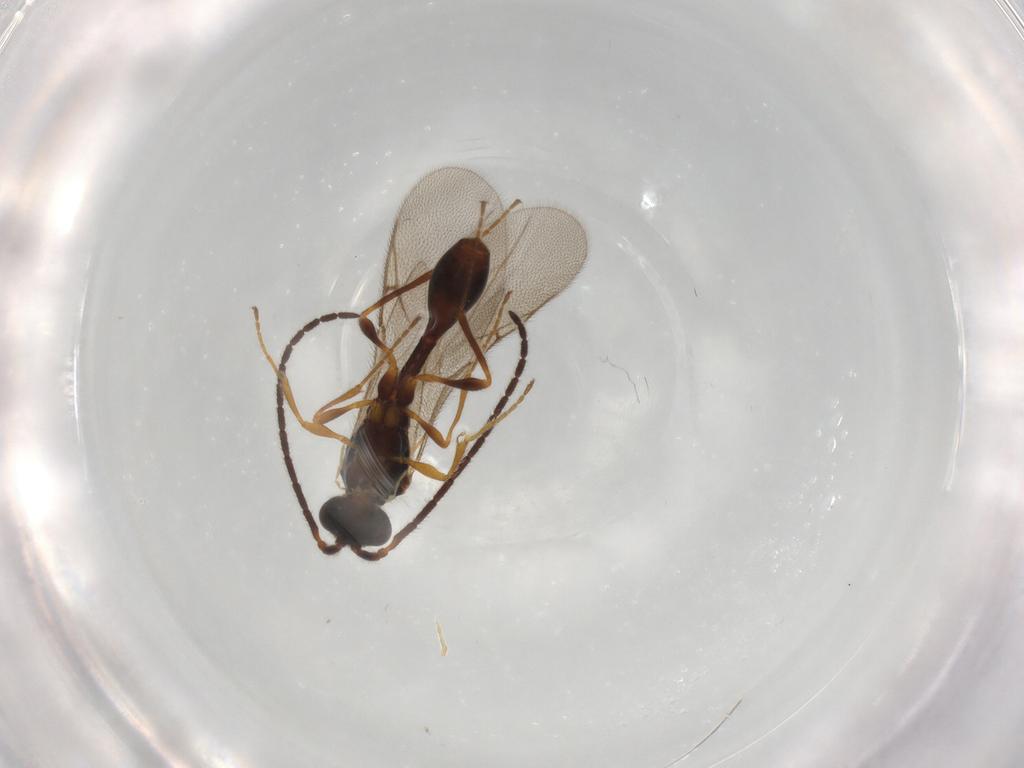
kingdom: Animalia
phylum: Arthropoda
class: Insecta
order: Hymenoptera
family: Diapriidae
